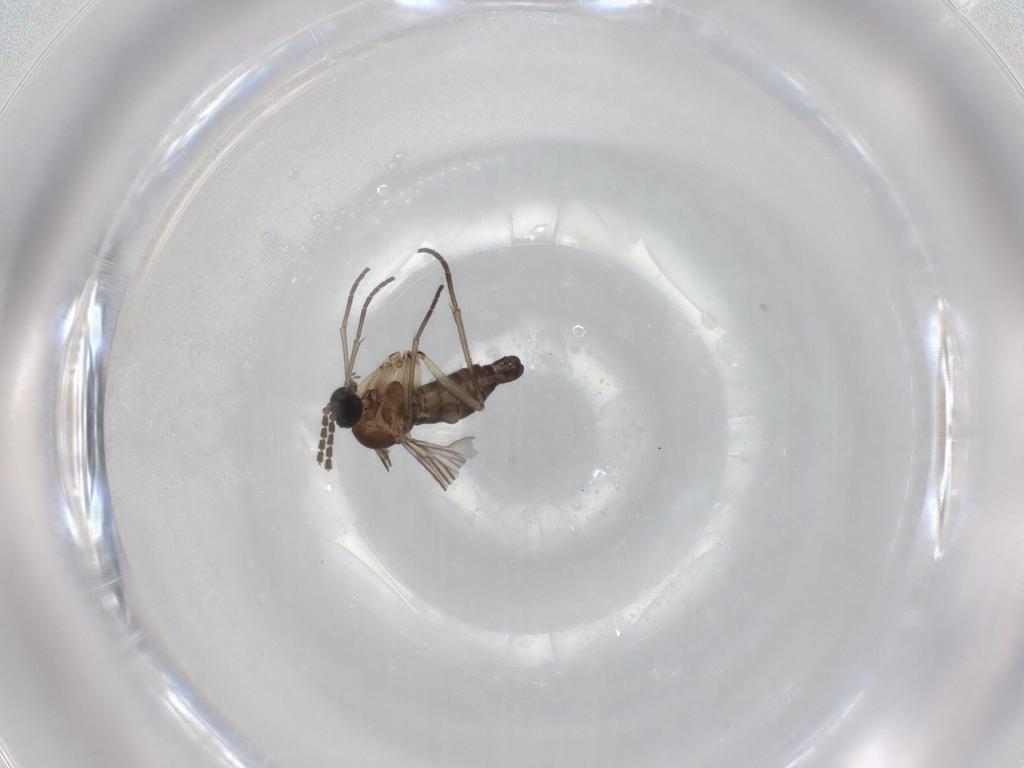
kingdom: Animalia
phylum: Arthropoda
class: Insecta
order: Diptera
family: Sciaridae
